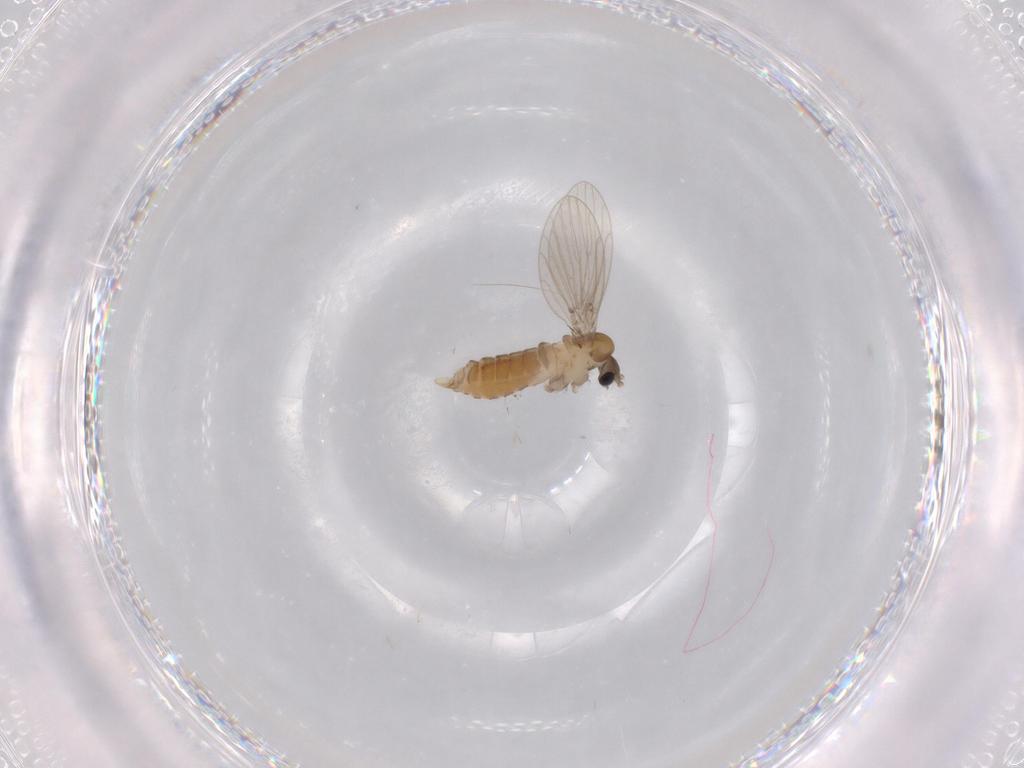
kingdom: Animalia
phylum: Arthropoda
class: Insecta
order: Diptera
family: Psychodidae
